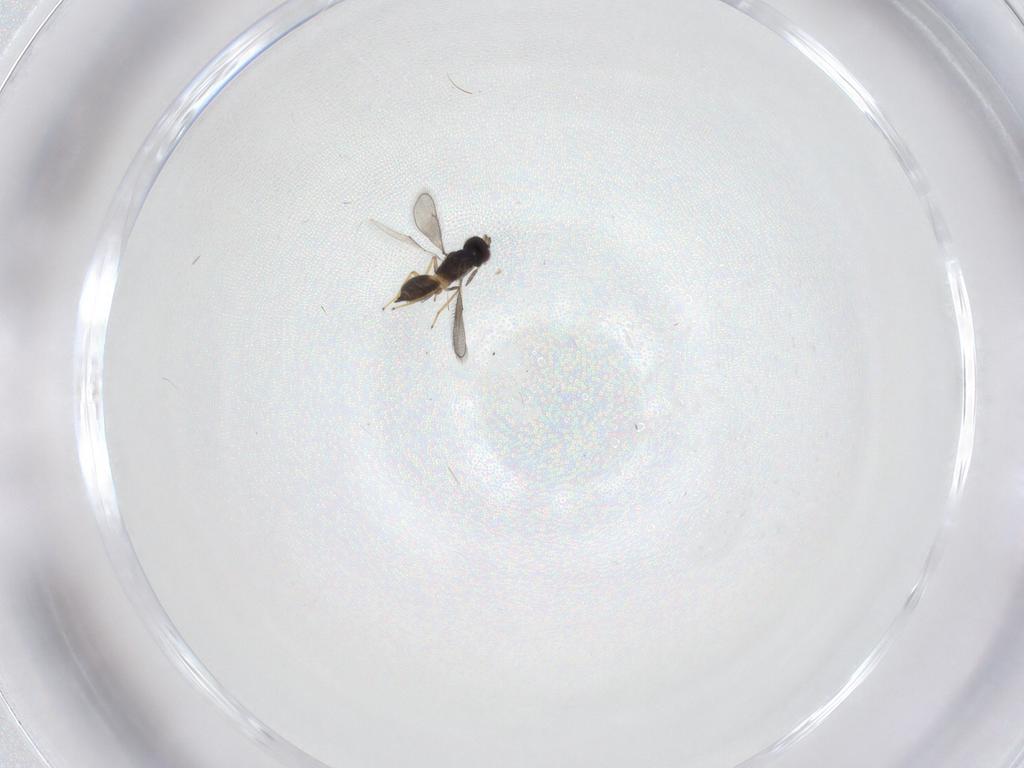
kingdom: Animalia
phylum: Arthropoda
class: Insecta
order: Hymenoptera
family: Eulophidae
